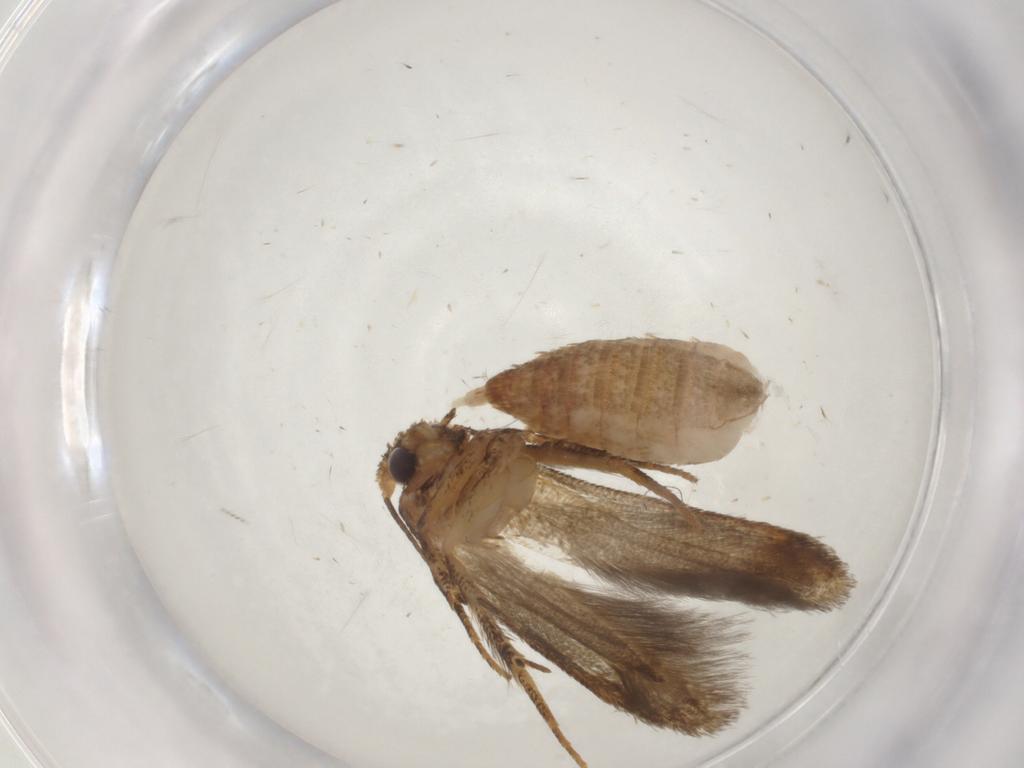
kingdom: Animalia
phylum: Arthropoda
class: Insecta
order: Lepidoptera
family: Blastobasidae
